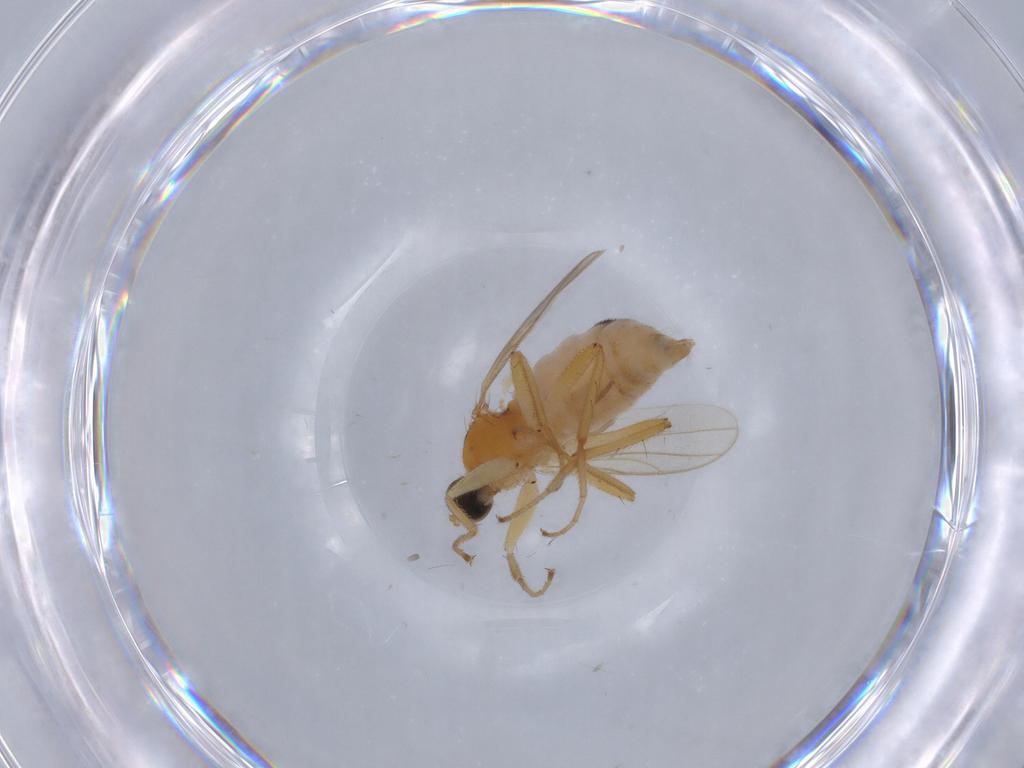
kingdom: Animalia
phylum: Arthropoda
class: Insecta
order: Diptera
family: Hybotidae
